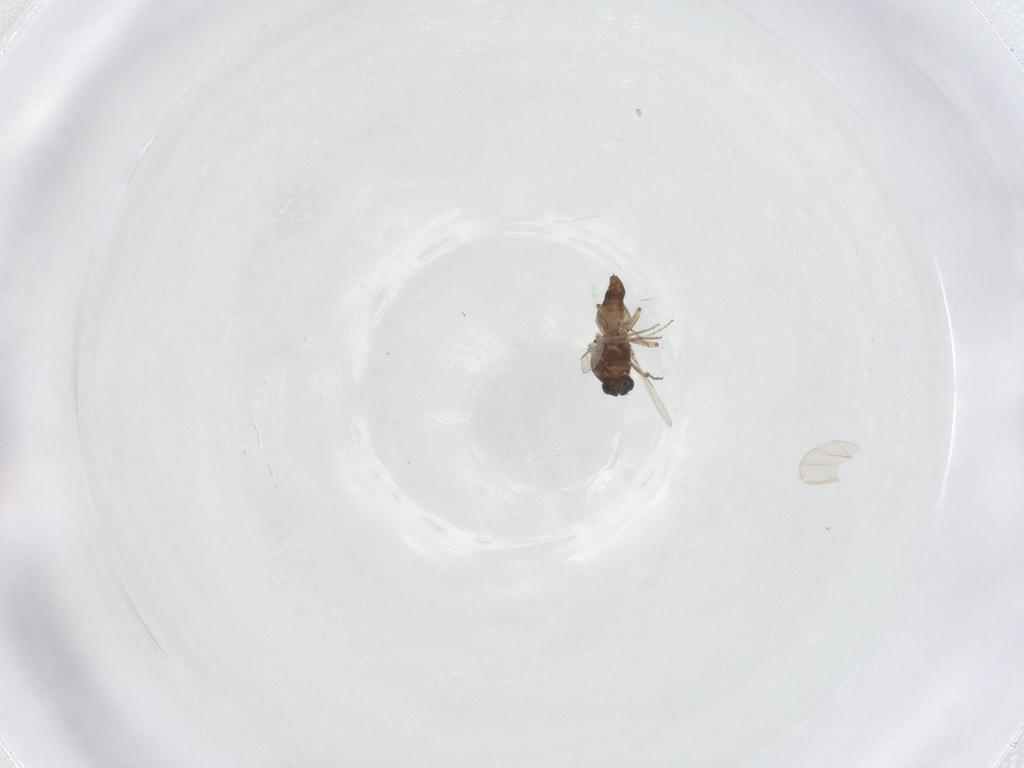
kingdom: Animalia
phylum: Arthropoda
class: Insecta
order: Diptera
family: Ceratopogonidae
